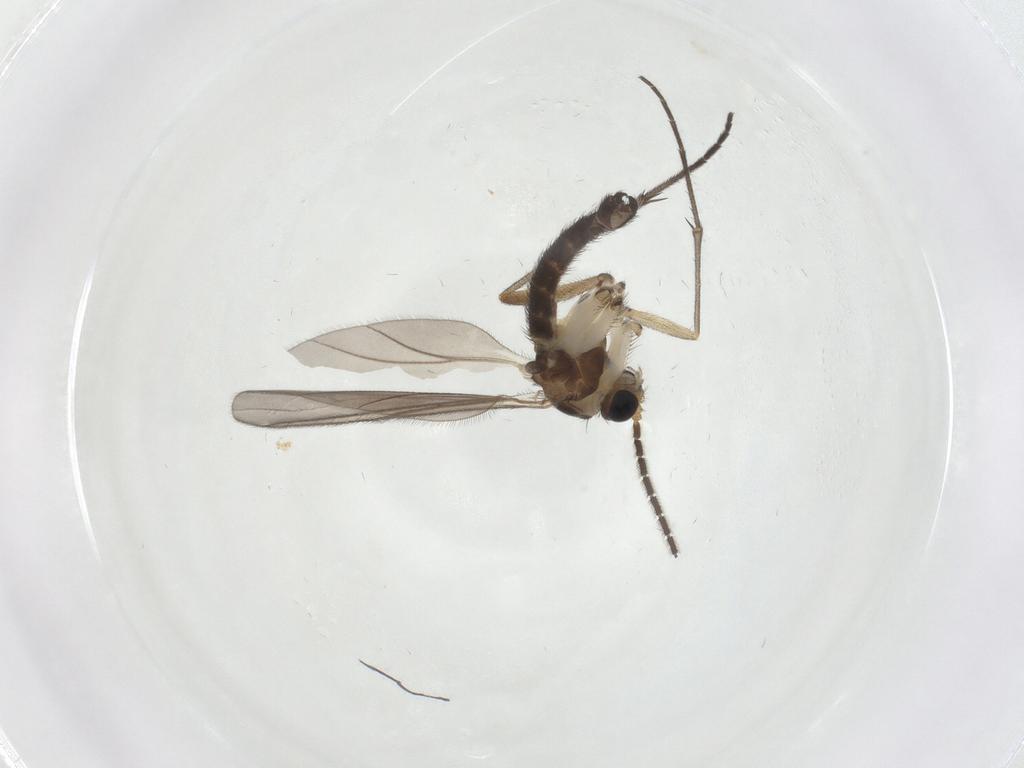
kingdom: Animalia
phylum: Arthropoda
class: Insecta
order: Diptera
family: Sciaridae
